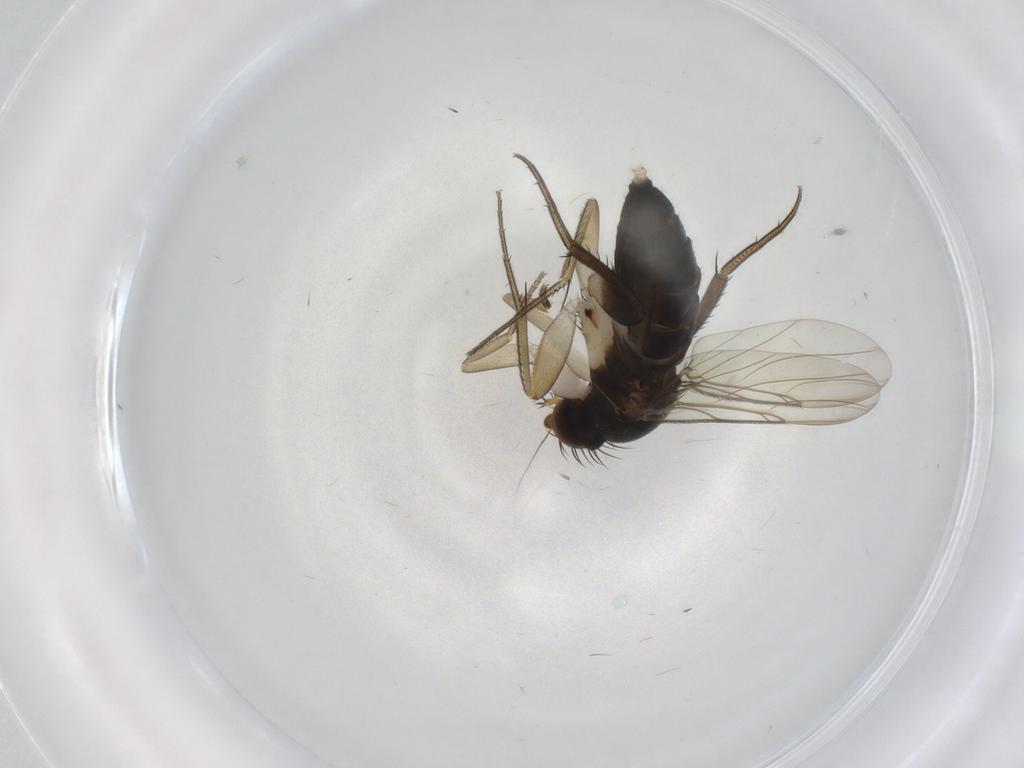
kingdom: Animalia
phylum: Arthropoda
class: Insecta
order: Diptera
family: Phoridae
